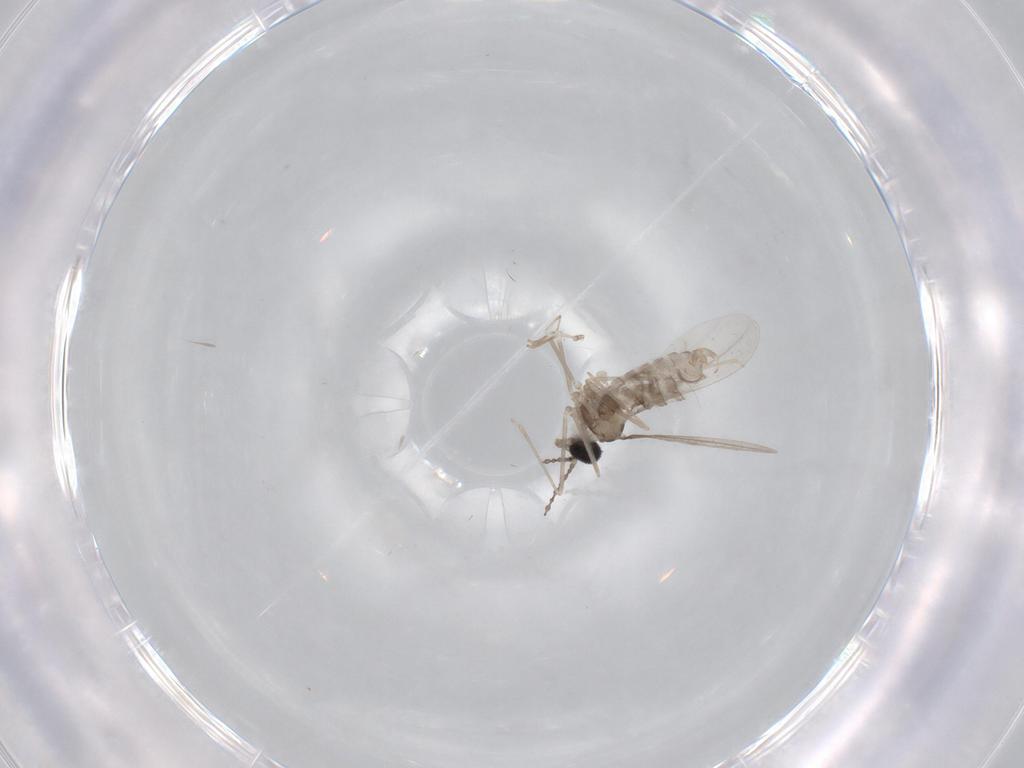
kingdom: Animalia
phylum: Arthropoda
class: Insecta
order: Diptera
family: Cecidomyiidae
